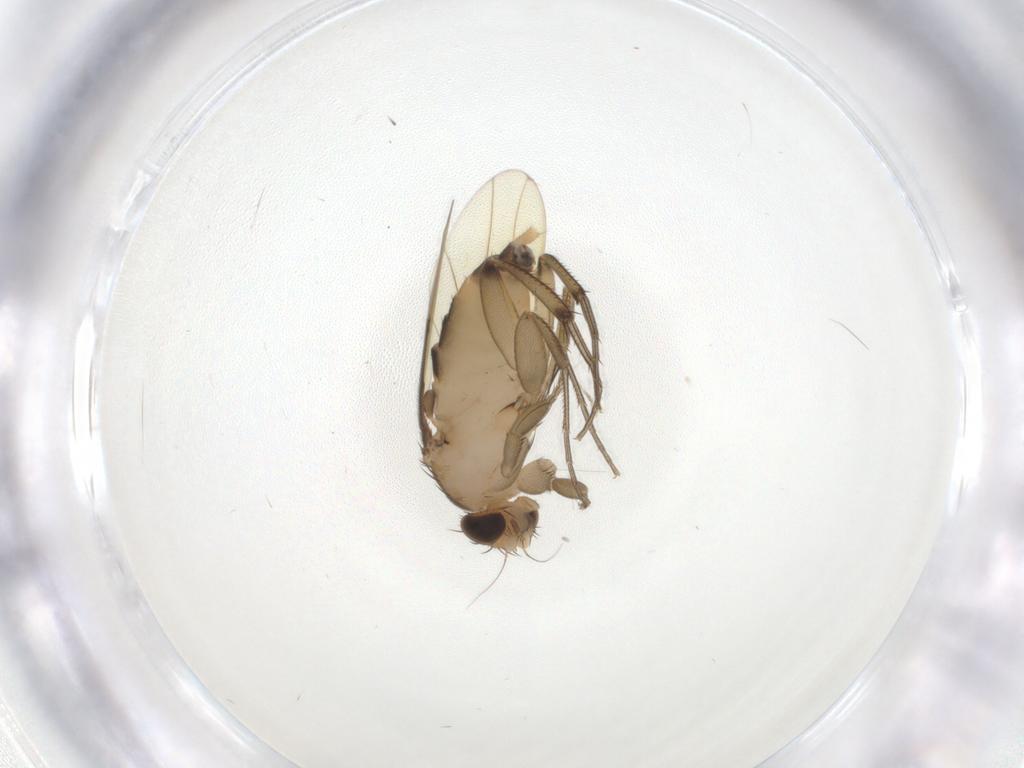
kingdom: Animalia
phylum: Arthropoda
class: Insecta
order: Diptera
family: Phoridae
